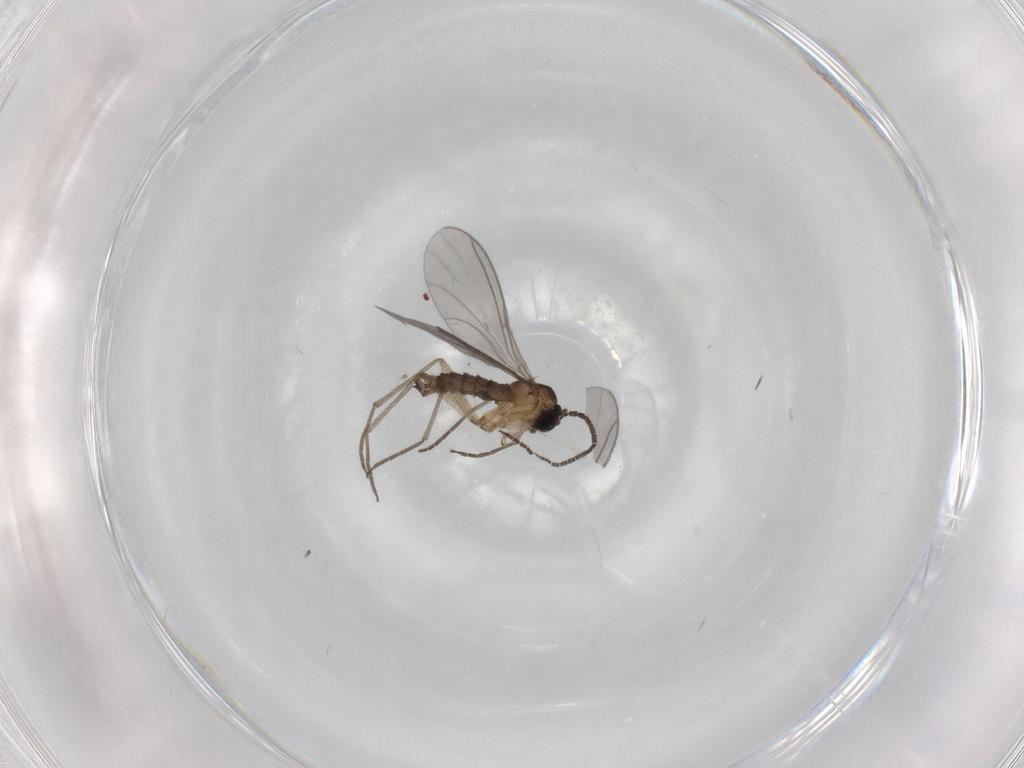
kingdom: Animalia
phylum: Arthropoda
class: Insecta
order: Diptera
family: Sciaridae
